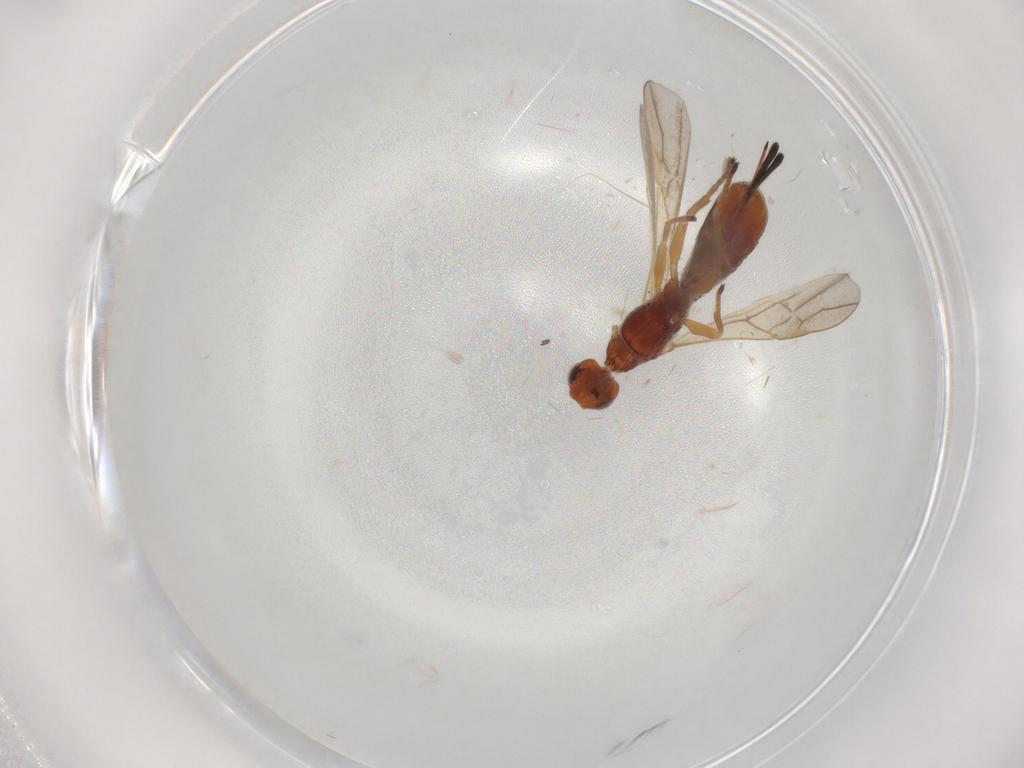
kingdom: Animalia
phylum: Arthropoda
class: Insecta
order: Hymenoptera
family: Braconidae
